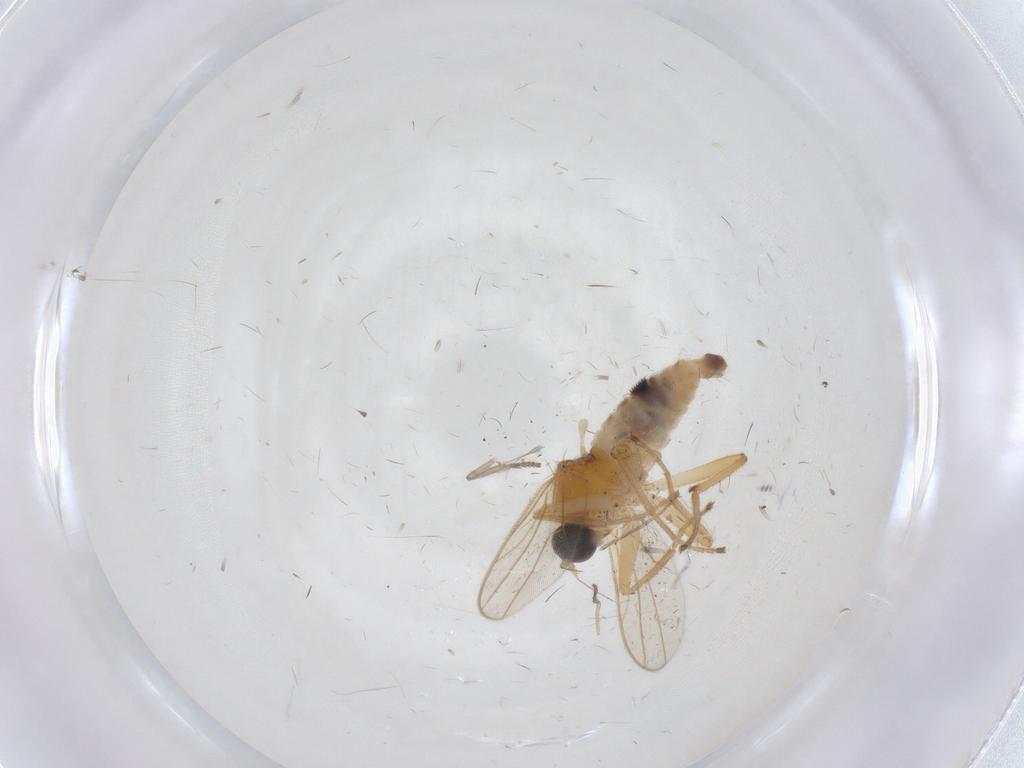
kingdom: Animalia
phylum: Arthropoda
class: Insecta
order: Diptera
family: Hybotidae
